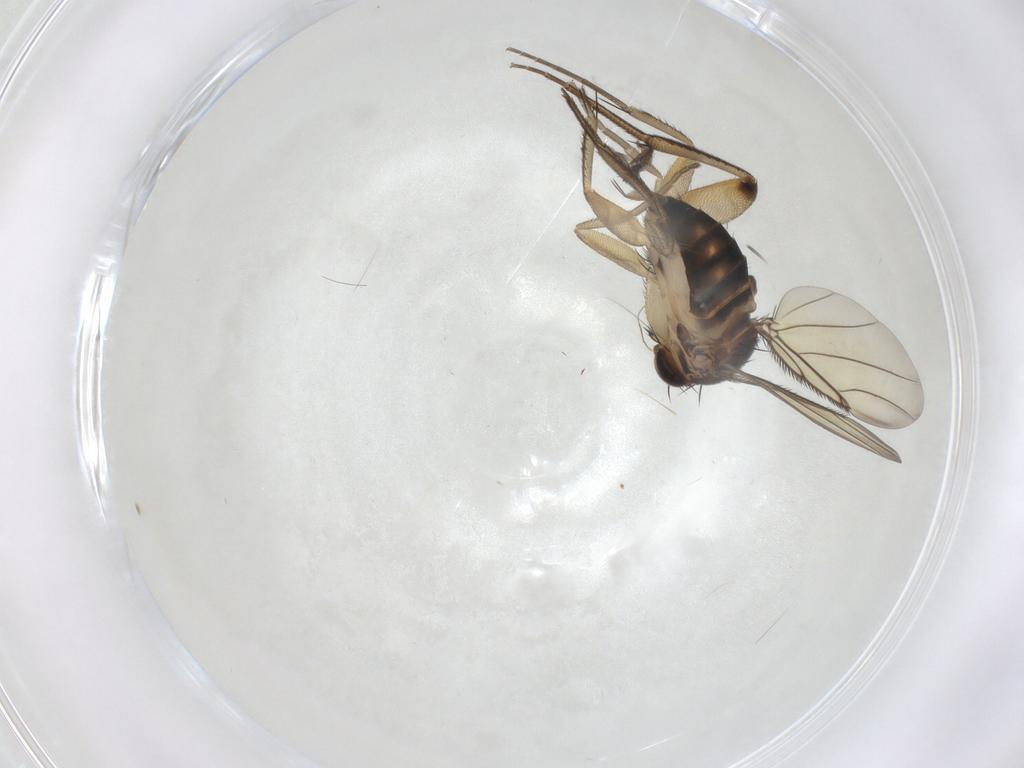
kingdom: Animalia
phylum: Arthropoda
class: Insecta
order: Diptera
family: Phoridae
